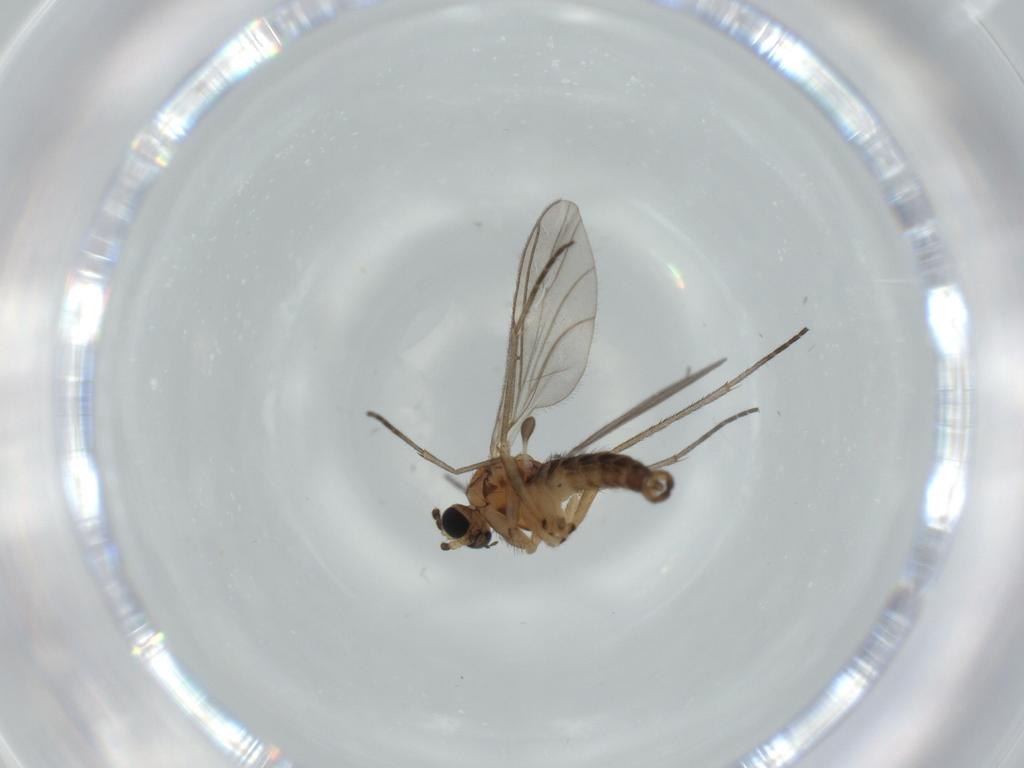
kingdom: Animalia
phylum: Arthropoda
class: Insecta
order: Diptera
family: Sciaridae
